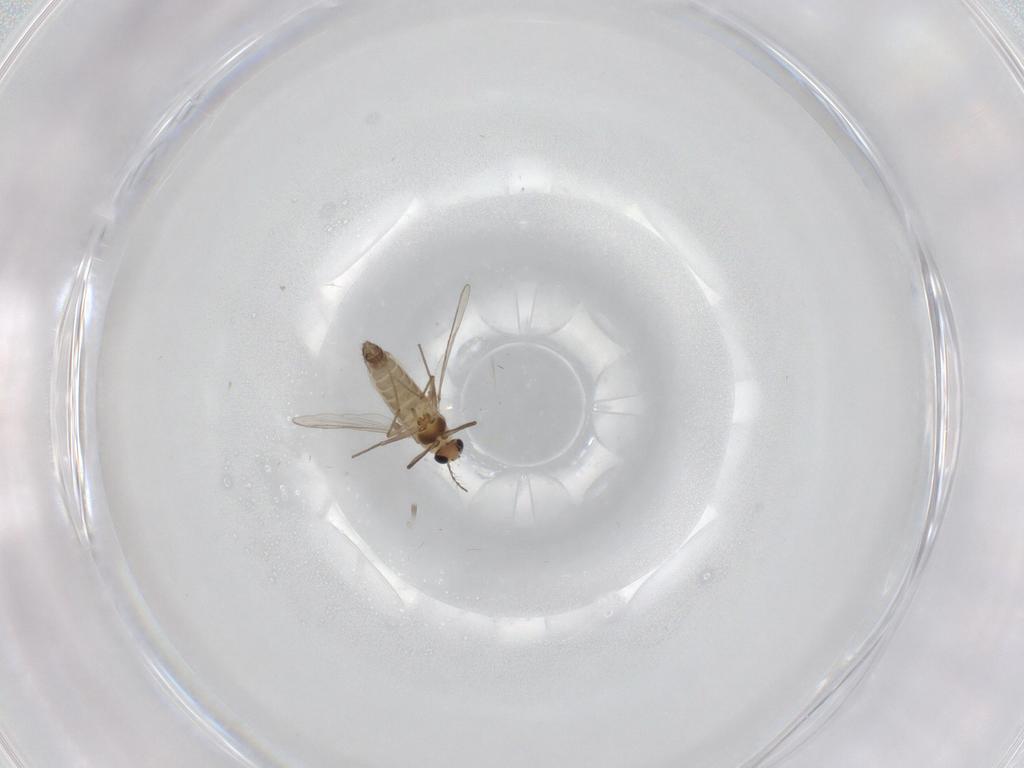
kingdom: Animalia
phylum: Arthropoda
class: Insecta
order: Diptera
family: Chironomidae
